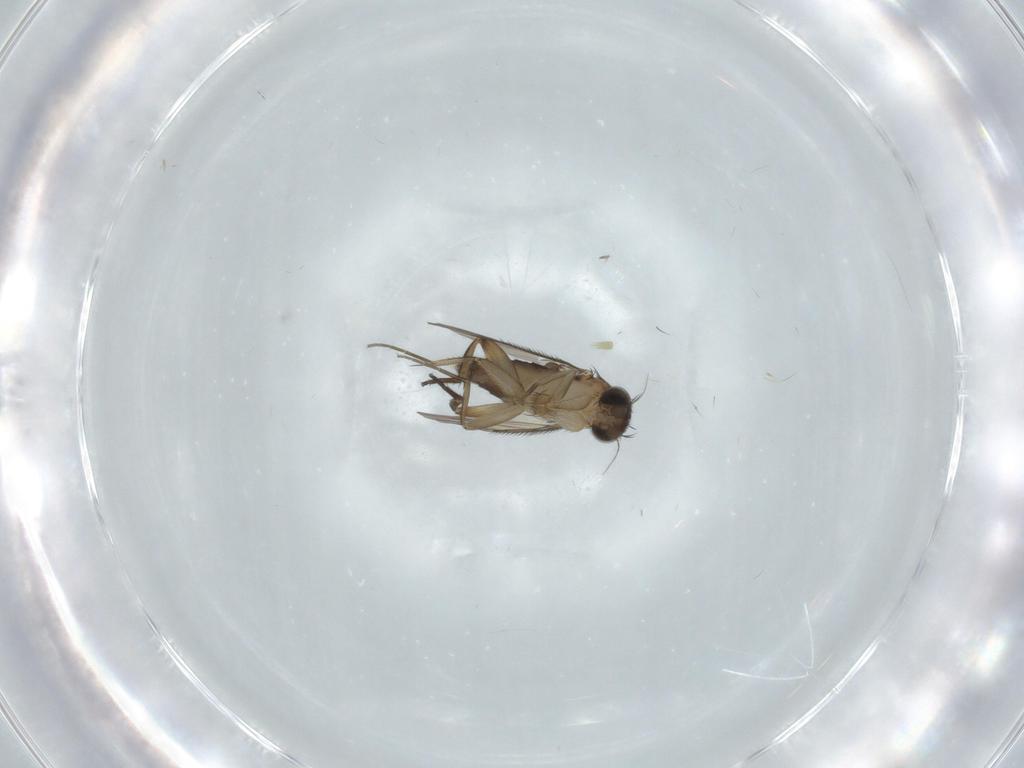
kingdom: Animalia
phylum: Arthropoda
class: Insecta
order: Diptera
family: Phoridae
